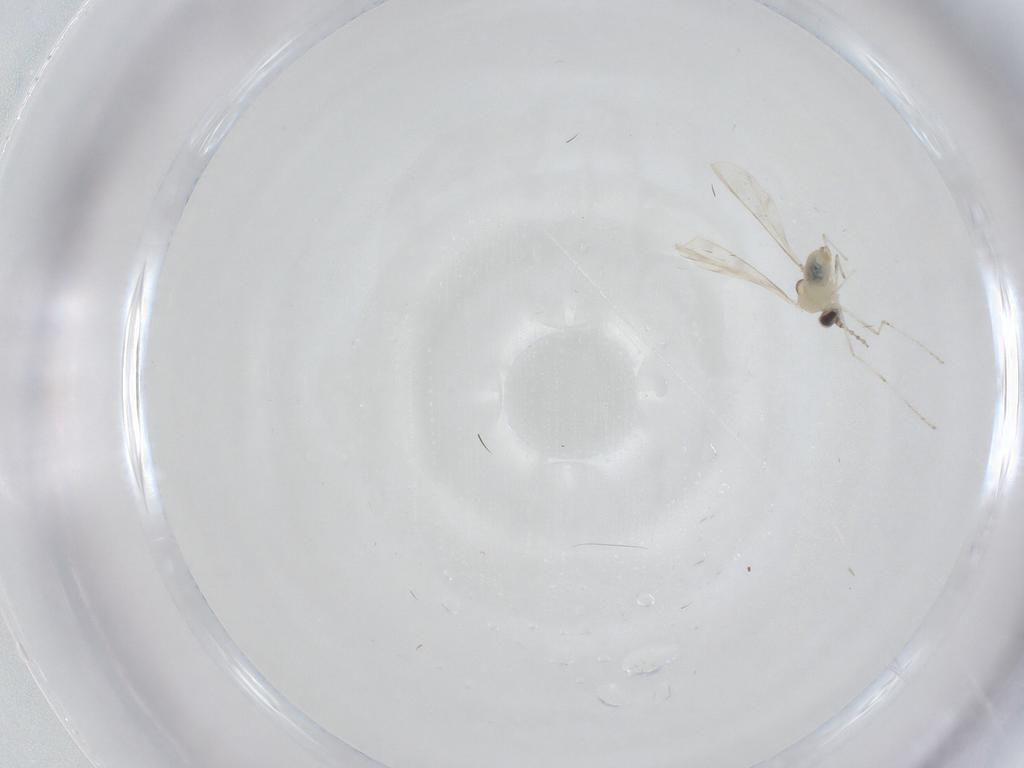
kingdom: Animalia
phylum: Arthropoda
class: Insecta
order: Diptera
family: Cecidomyiidae
